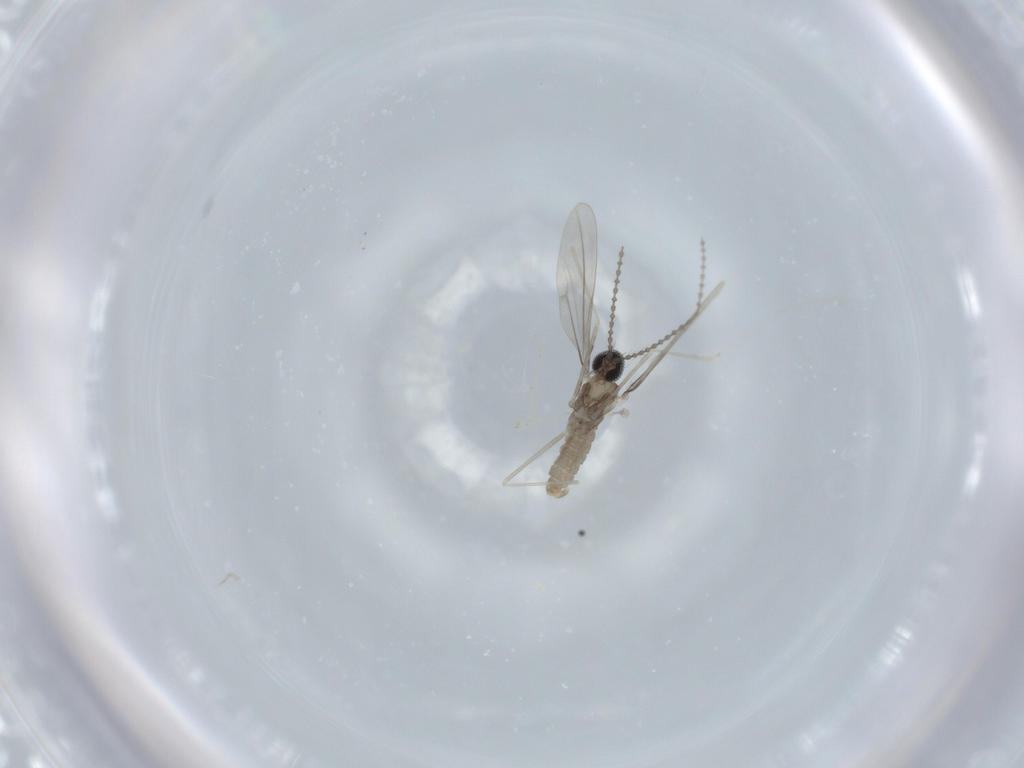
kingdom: Animalia
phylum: Arthropoda
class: Insecta
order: Diptera
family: Cecidomyiidae
